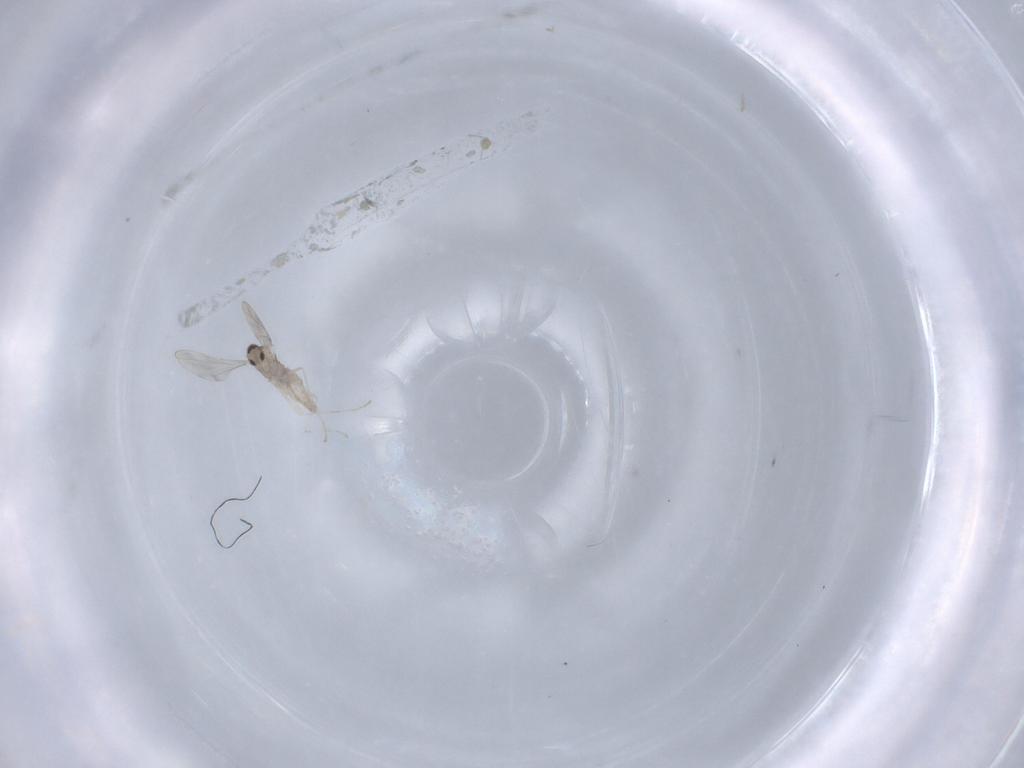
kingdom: Animalia
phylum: Arthropoda
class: Insecta
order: Diptera
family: Cecidomyiidae
